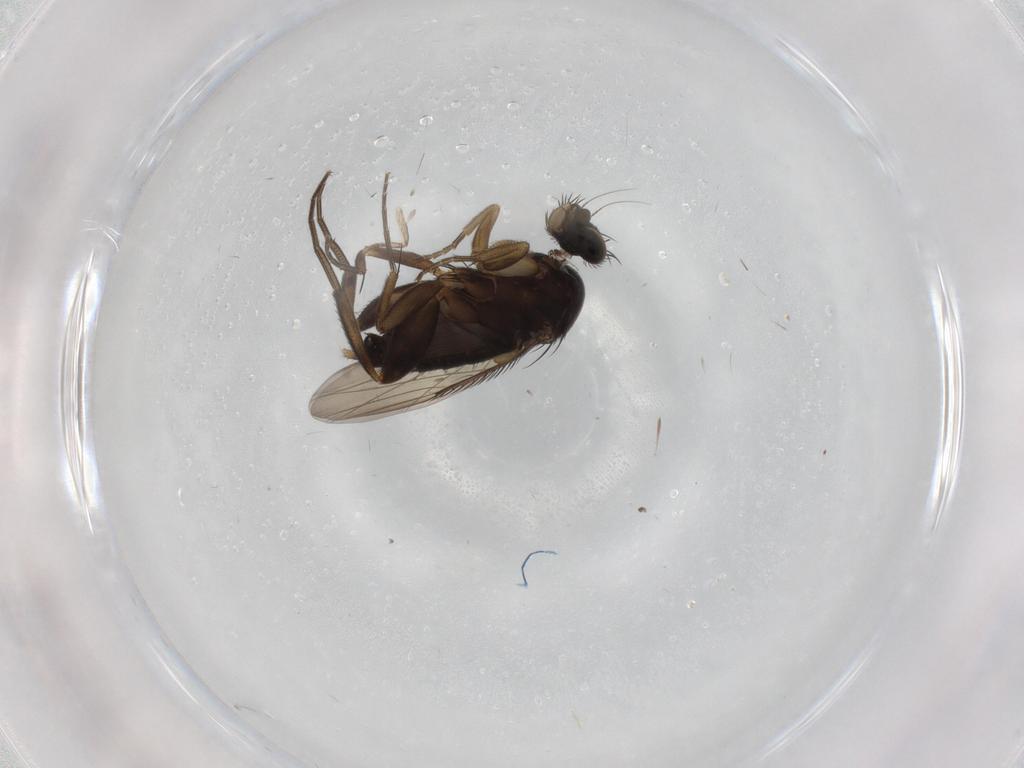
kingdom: Animalia
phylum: Arthropoda
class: Insecta
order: Diptera
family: Phoridae
